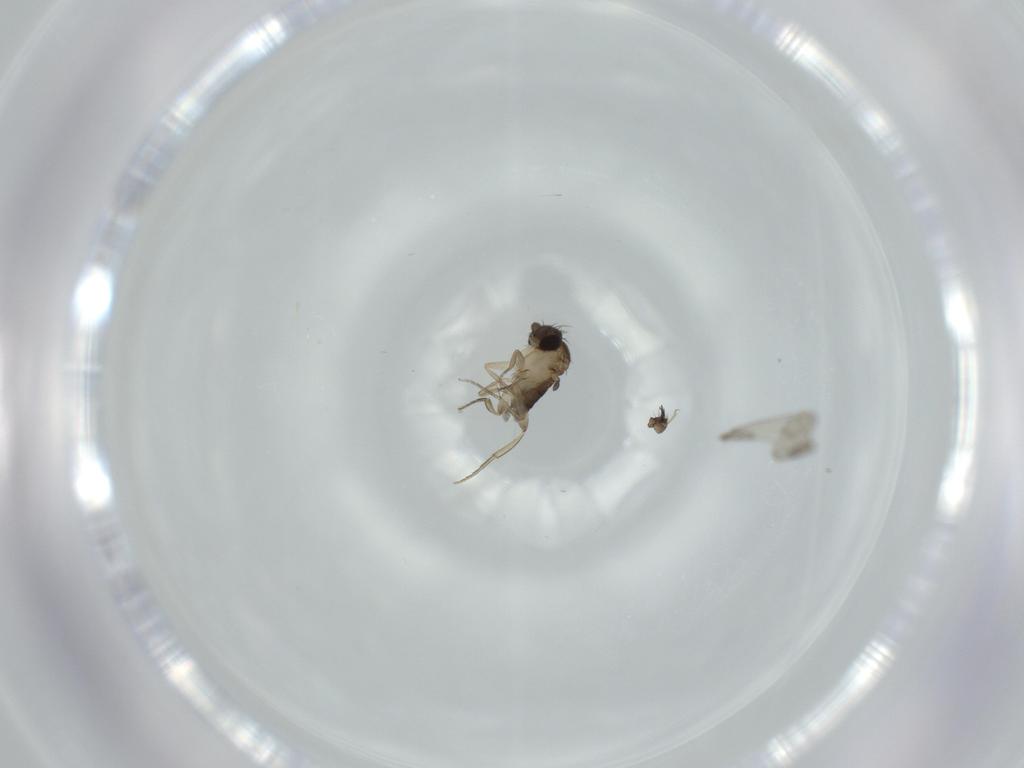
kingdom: Animalia
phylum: Arthropoda
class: Insecta
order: Diptera
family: Phoridae
